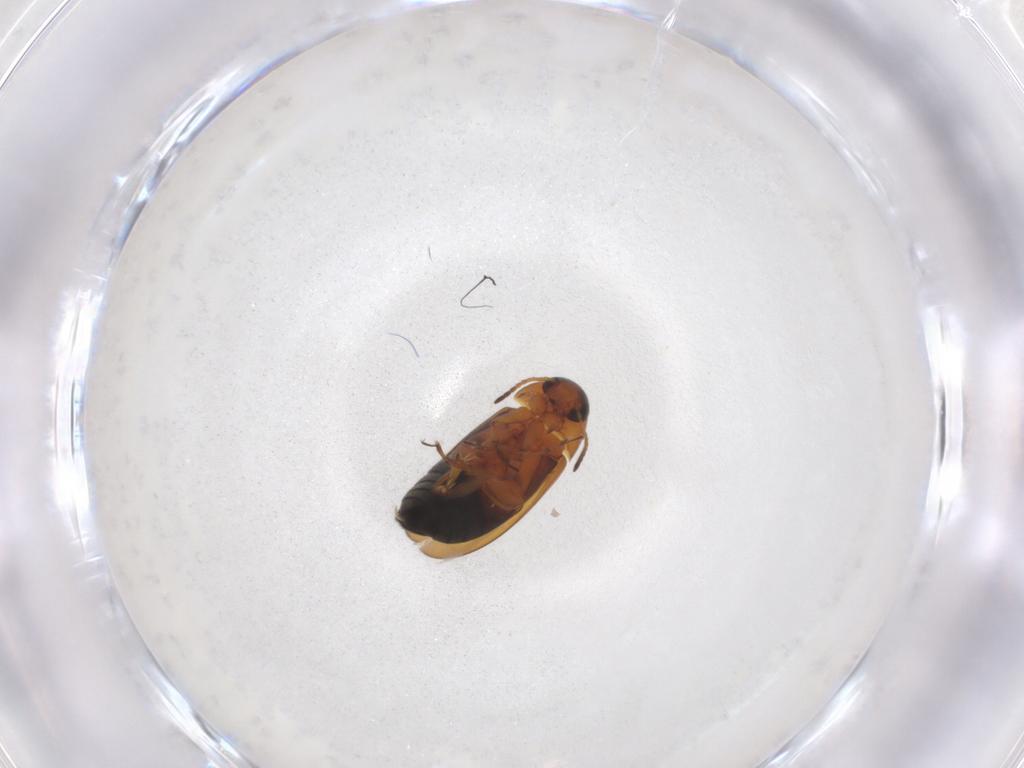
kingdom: Animalia
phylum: Arthropoda
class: Insecta
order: Coleoptera
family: Scraptiidae
